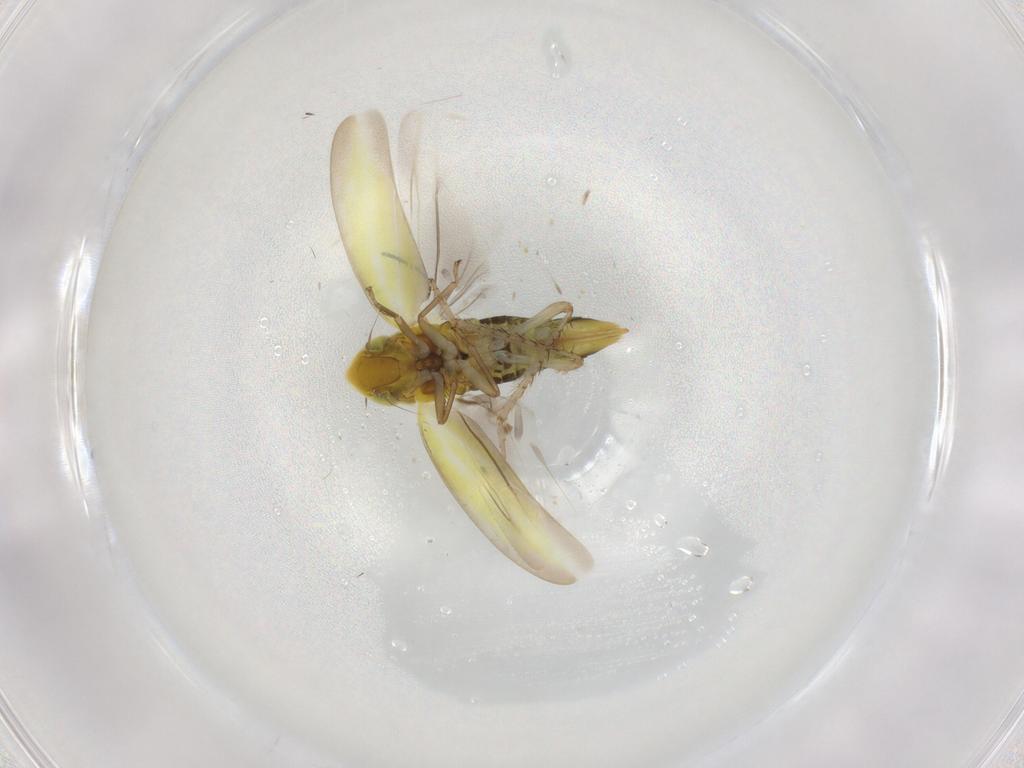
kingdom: Animalia
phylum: Arthropoda
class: Insecta
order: Hemiptera
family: Cicadellidae
